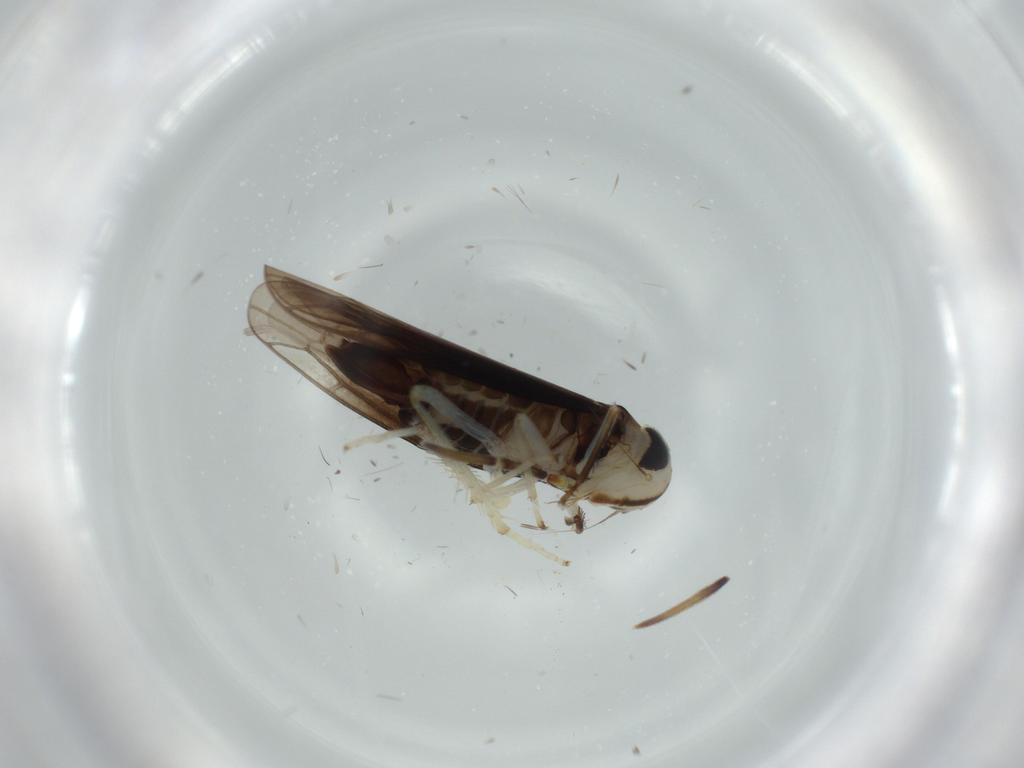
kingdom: Animalia
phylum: Arthropoda
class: Insecta
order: Hemiptera
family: Cicadellidae
